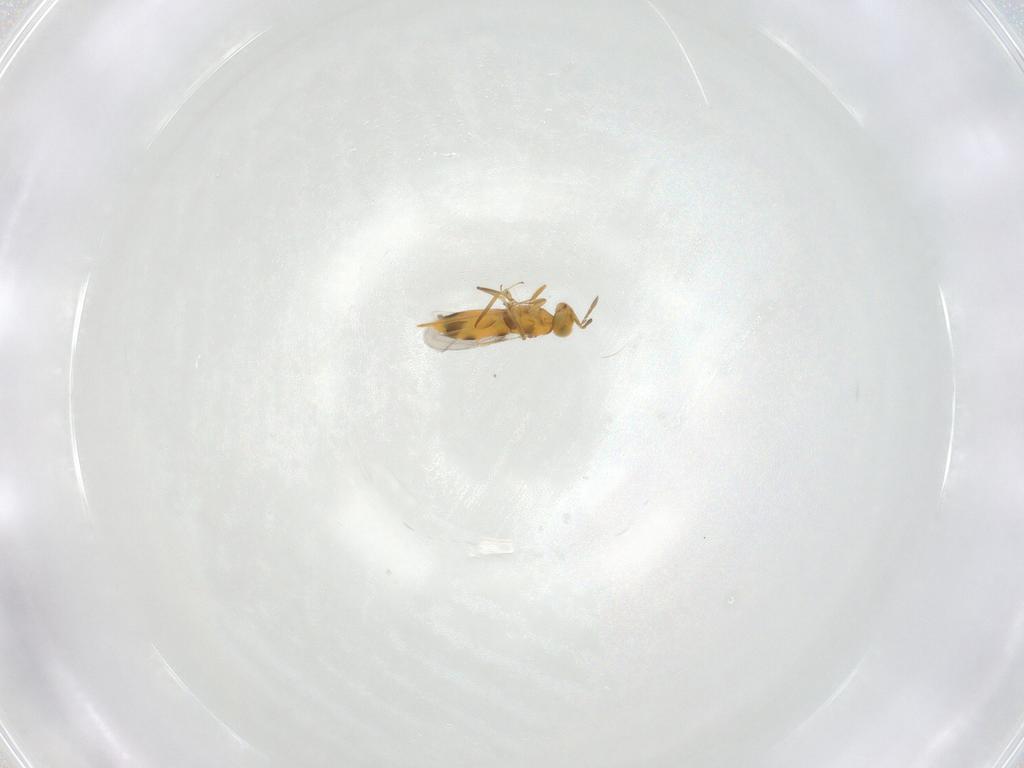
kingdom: Animalia
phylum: Arthropoda
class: Insecta
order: Hymenoptera
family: Aphelinidae
